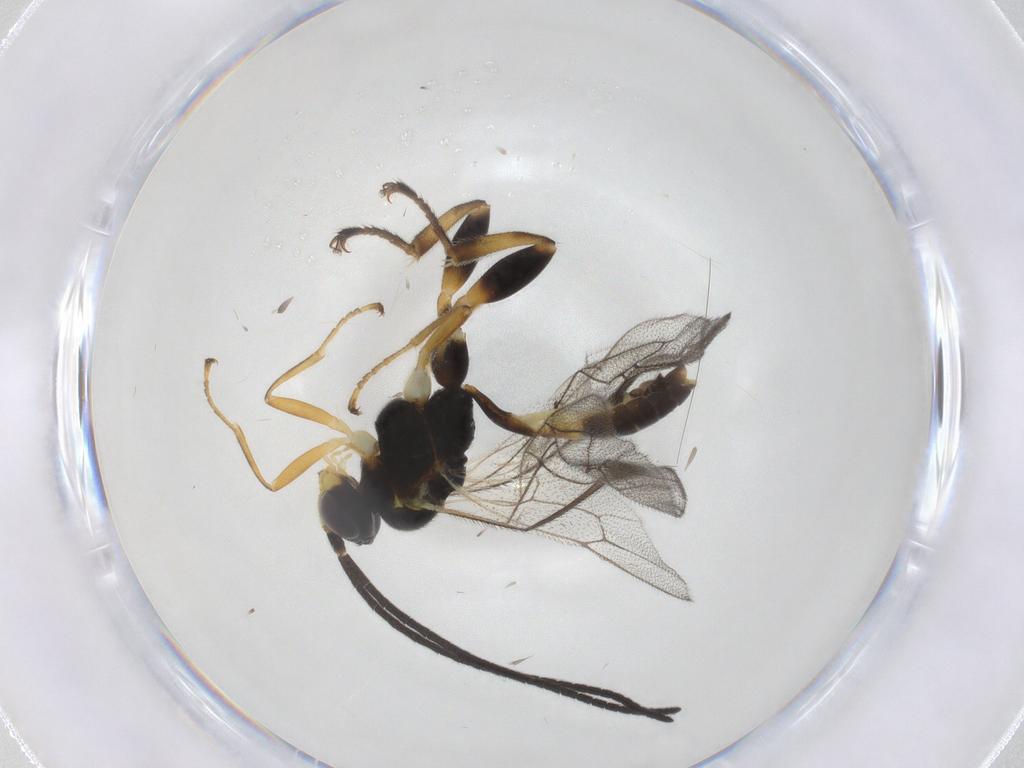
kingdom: Animalia
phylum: Arthropoda
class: Insecta
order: Hymenoptera
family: Ichneumonidae
